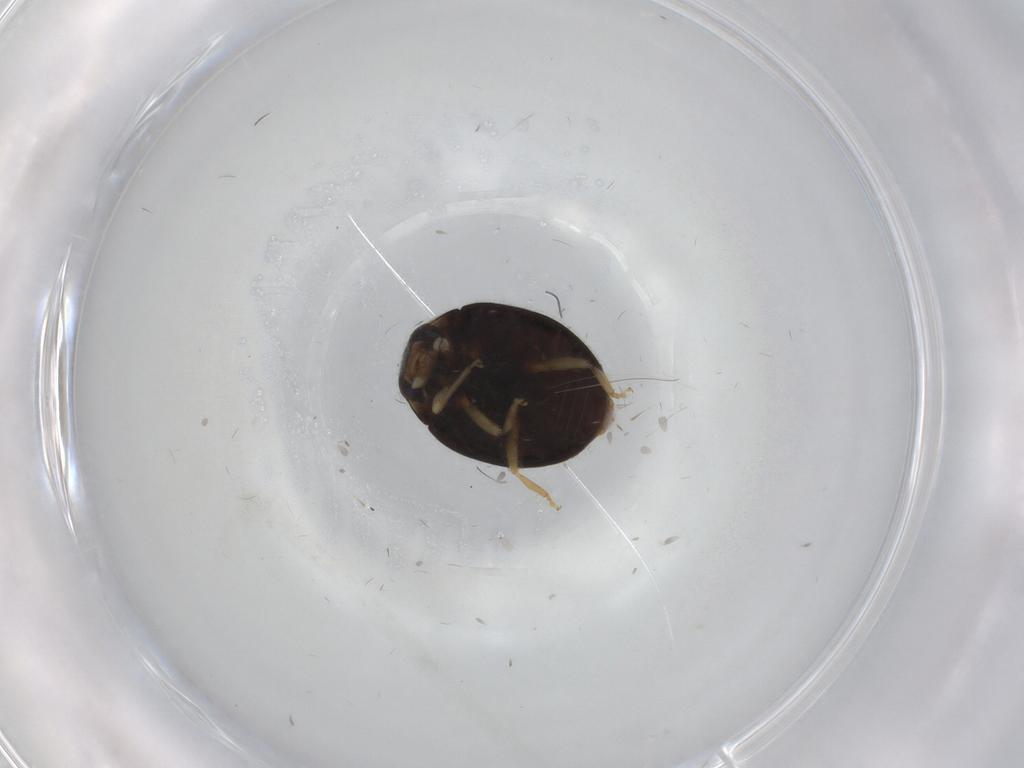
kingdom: Animalia
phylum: Arthropoda
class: Insecta
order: Coleoptera
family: Coccinellidae
